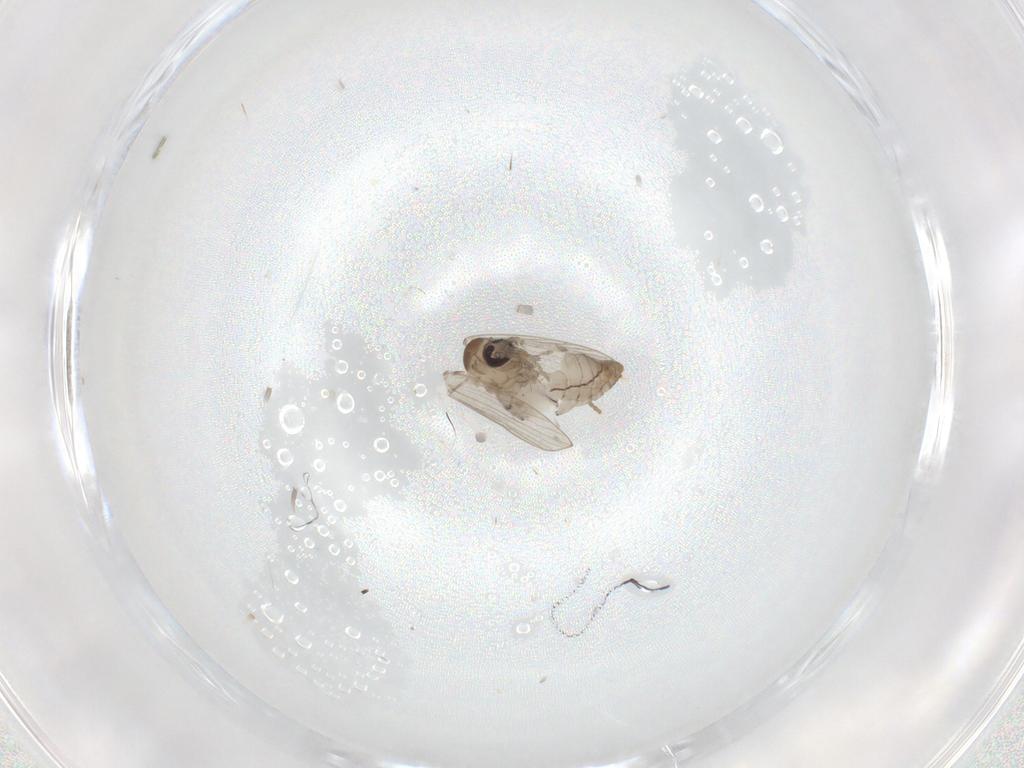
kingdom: Animalia
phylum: Arthropoda
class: Insecta
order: Diptera
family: Psychodidae
